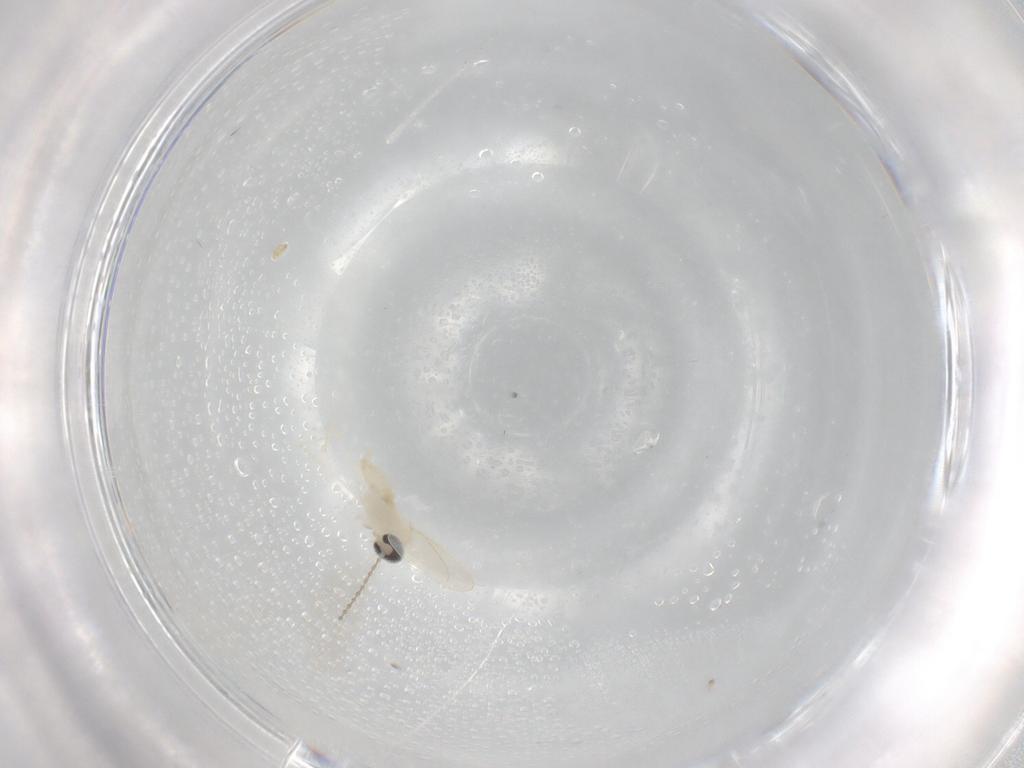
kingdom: Animalia
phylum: Arthropoda
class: Insecta
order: Diptera
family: Cecidomyiidae
